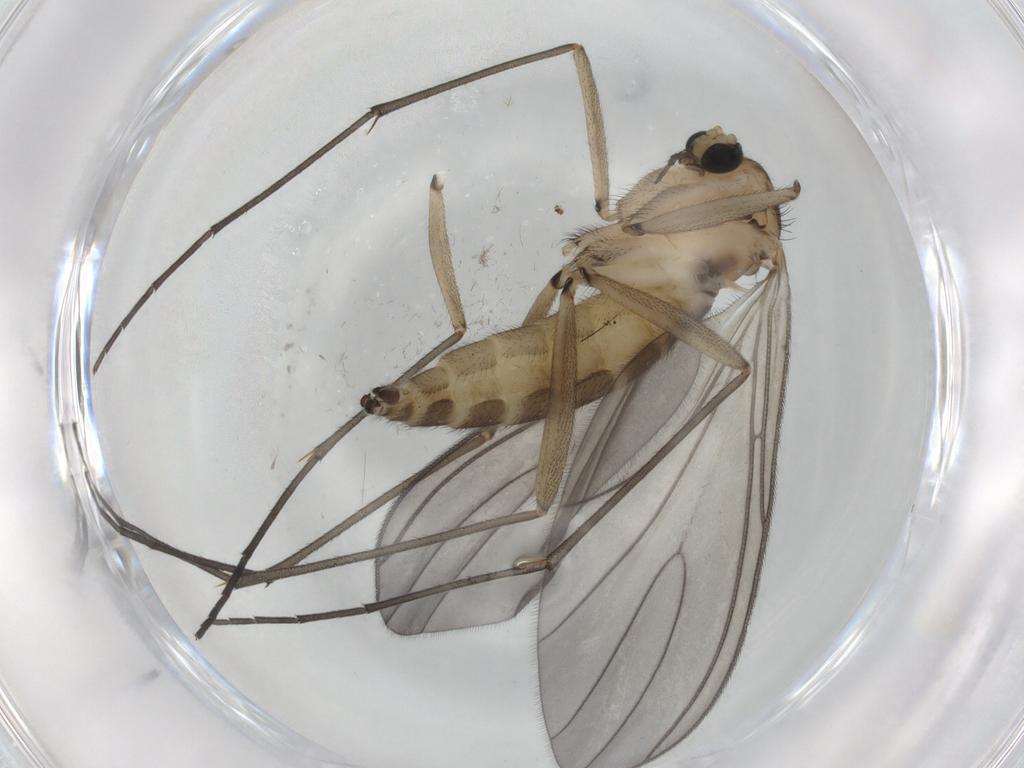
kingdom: Animalia
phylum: Arthropoda
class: Insecta
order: Diptera
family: Sciaridae
